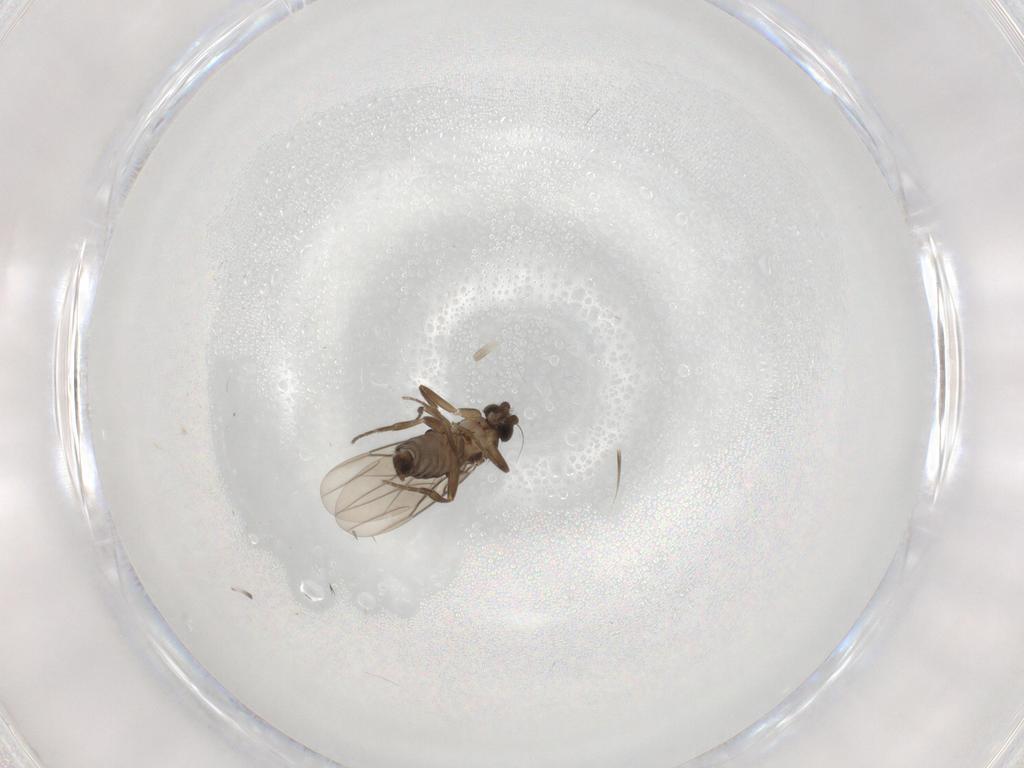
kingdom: Animalia
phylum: Arthropoda
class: Insecta
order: Diptera
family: Phoridae
